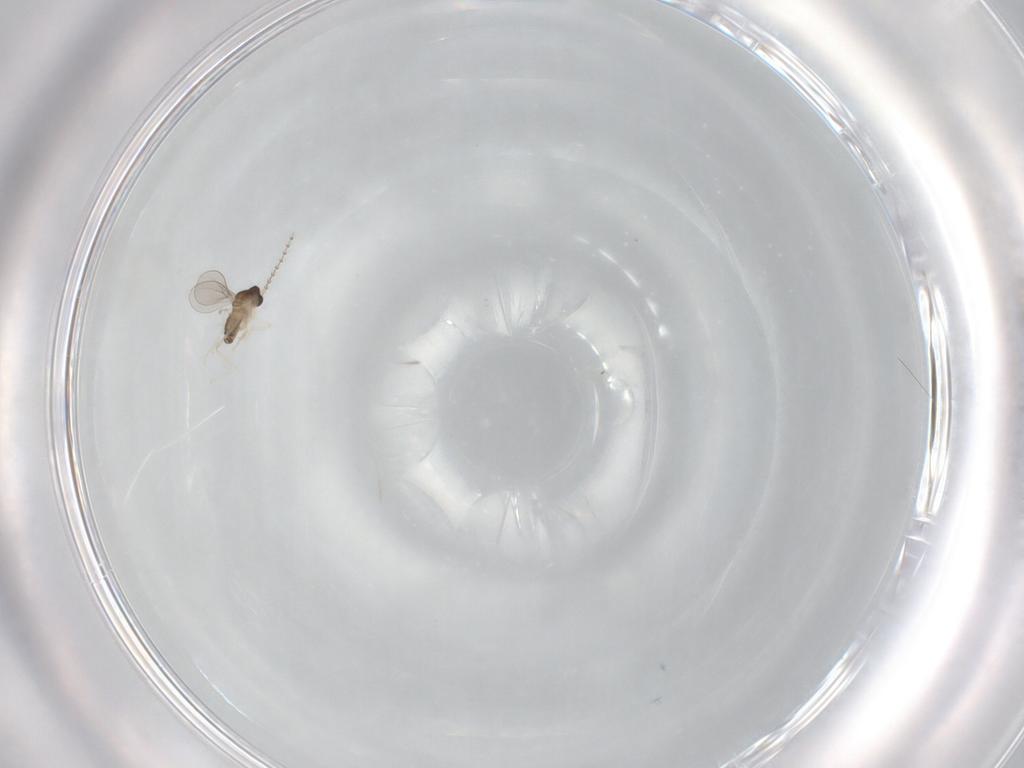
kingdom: Animalia
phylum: Arthropoda
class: Insecta
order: Diptera
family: Cecidomyiidae
